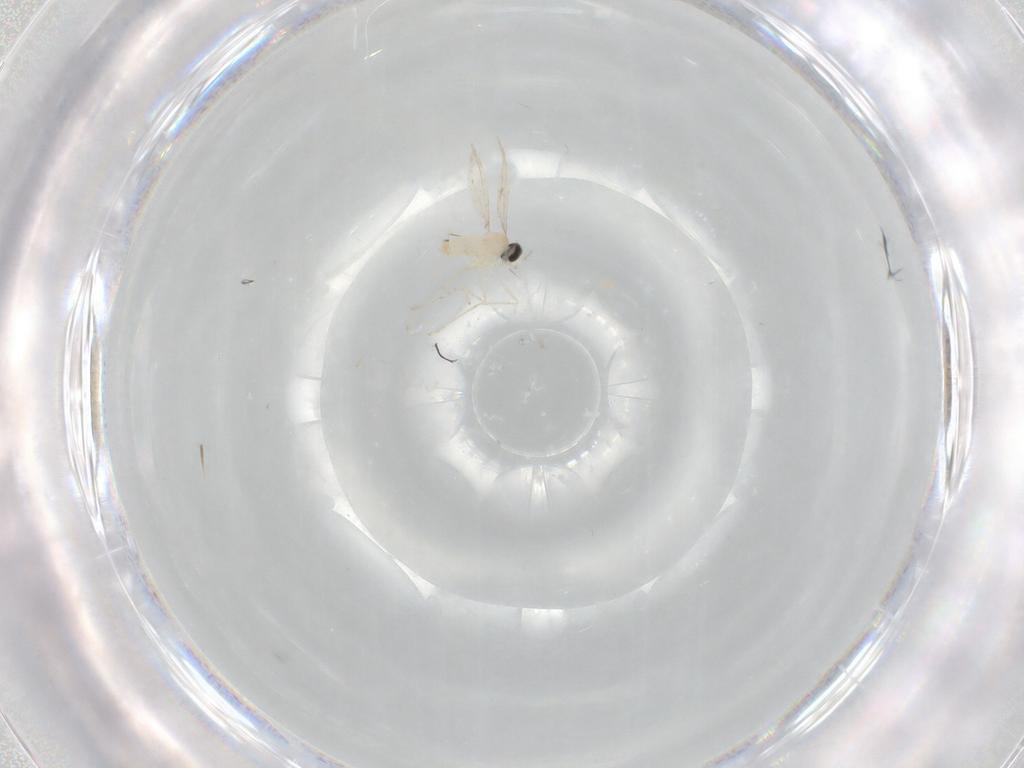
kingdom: Animalia
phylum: Arthropoda
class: Insecta
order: Diptera
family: Cecidomyiidae
